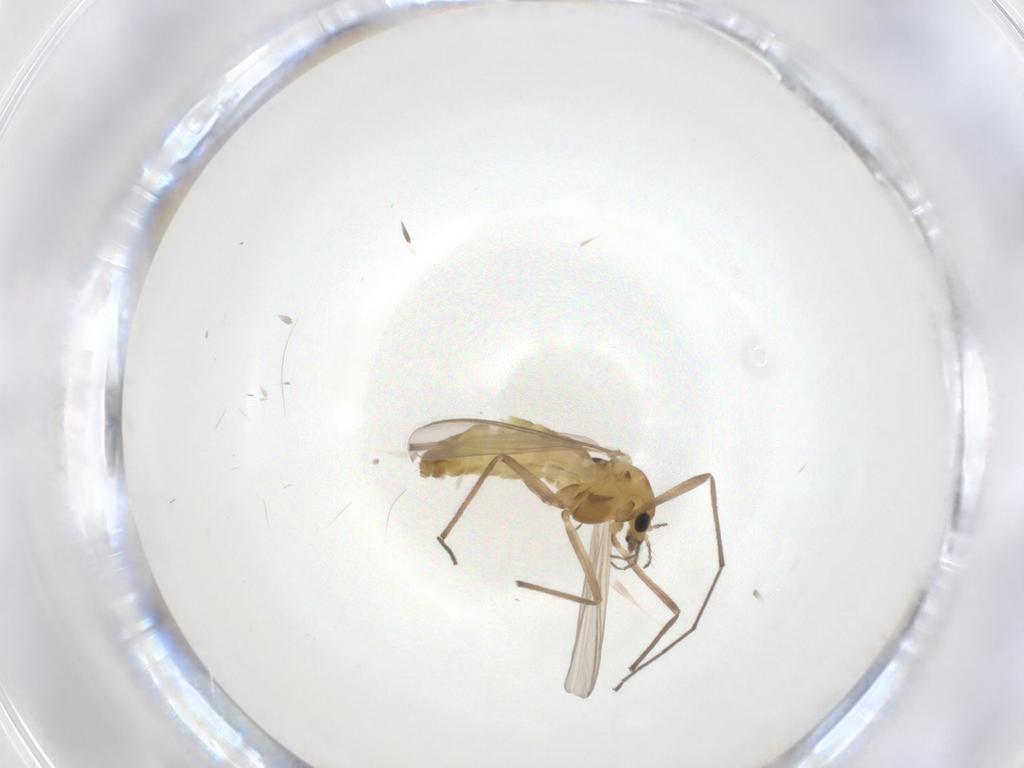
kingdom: Animalia
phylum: Arthropoda
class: Insecta
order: Diptera
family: Chironomidae
